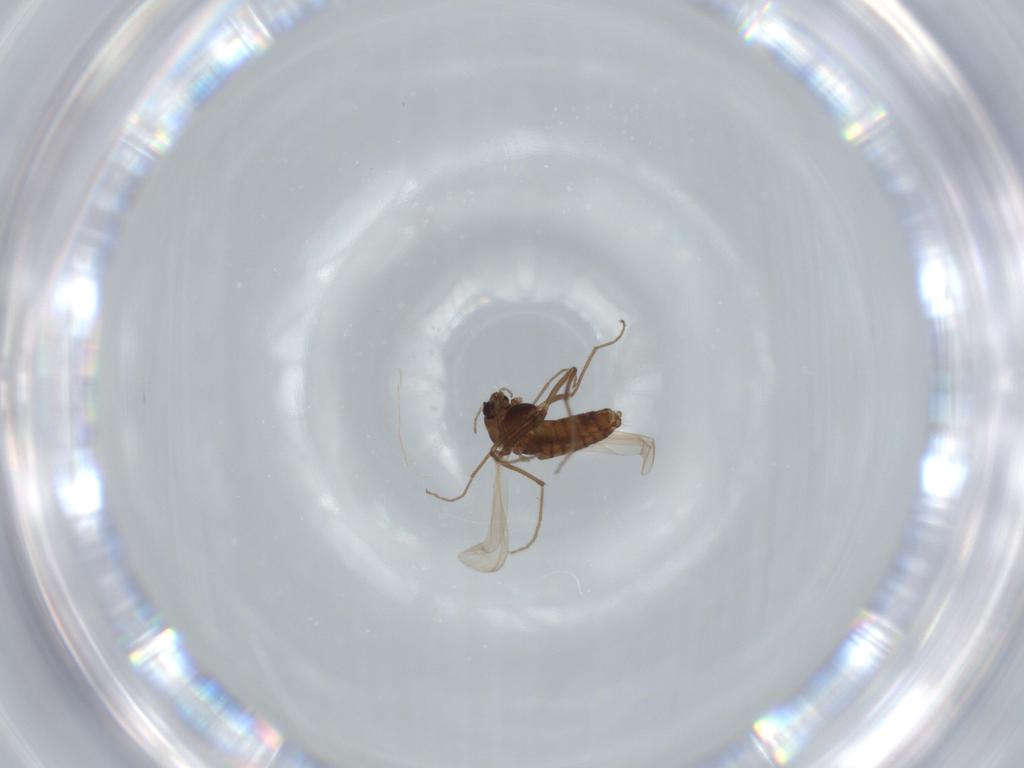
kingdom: Animalia
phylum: Arthropoda
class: Insecta
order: Diptera
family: Chironomidae
